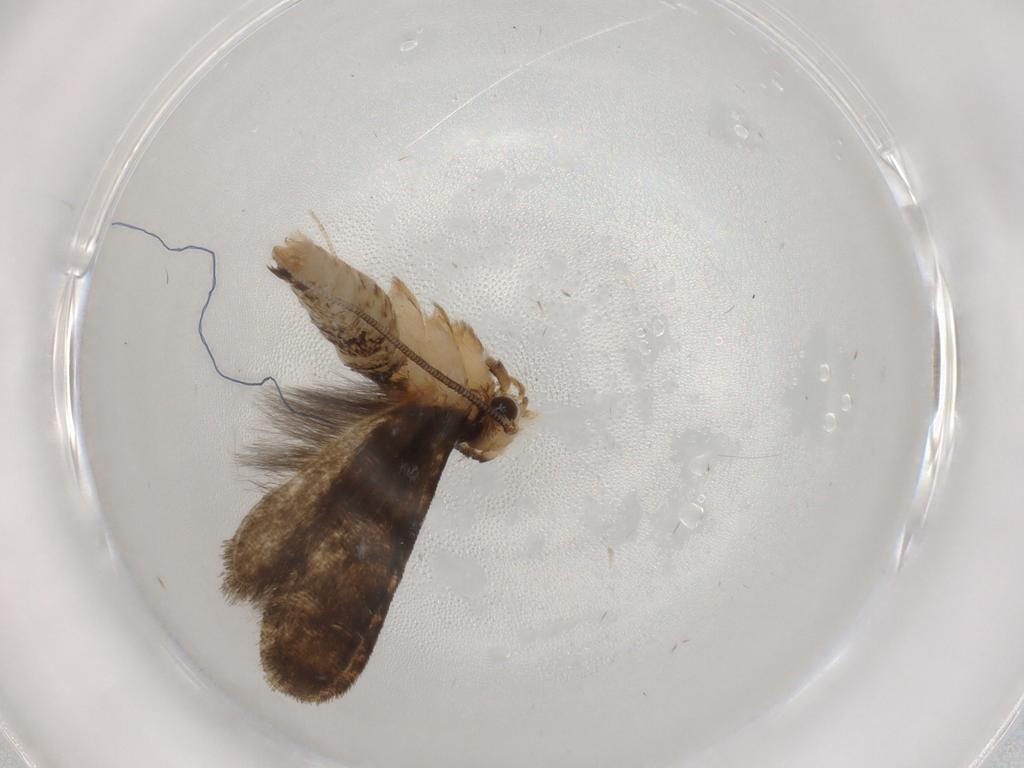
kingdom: Animalia
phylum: Arthropoda
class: Insecta
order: Lepidoptera
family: Tineidae
